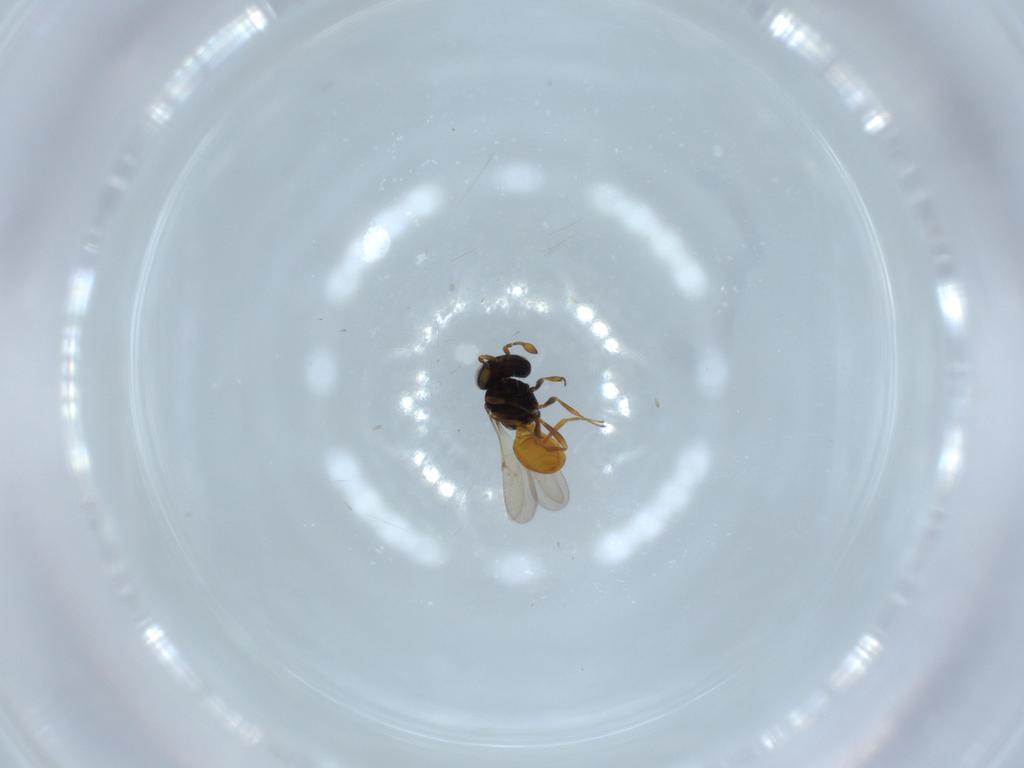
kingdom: Animalia
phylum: Arthropoda
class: Insecta
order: Hymenoptera
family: Scelionidae
